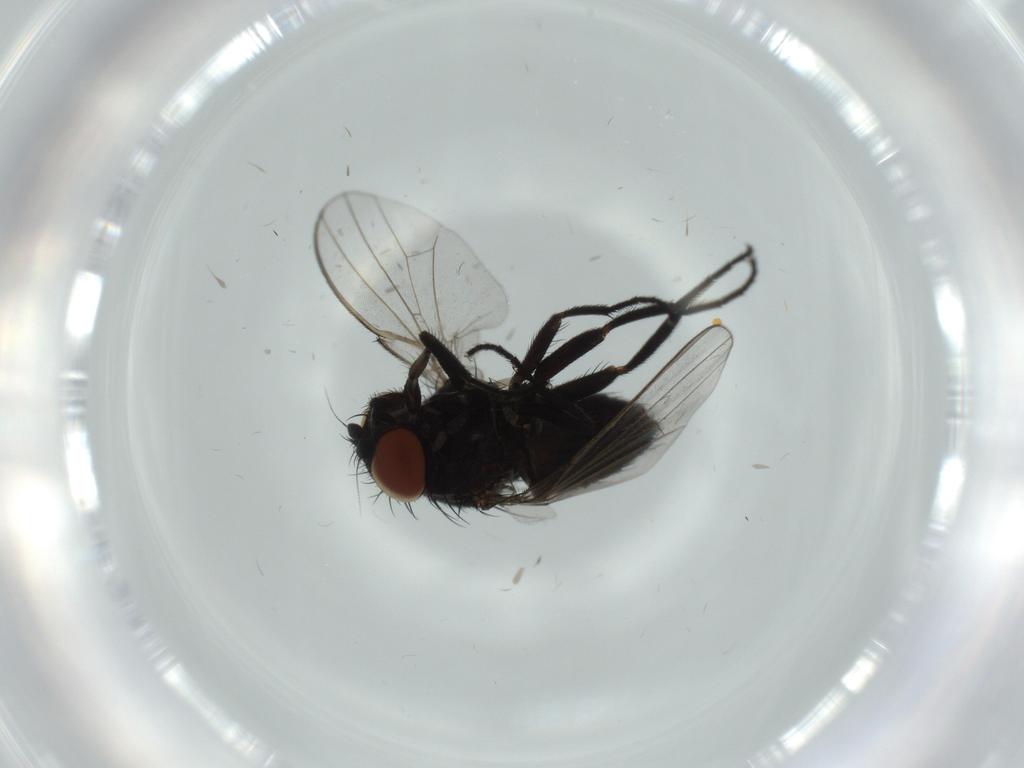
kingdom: Animalia
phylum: Arthropoda
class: Insecta
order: Diptera
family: Milichiidae
